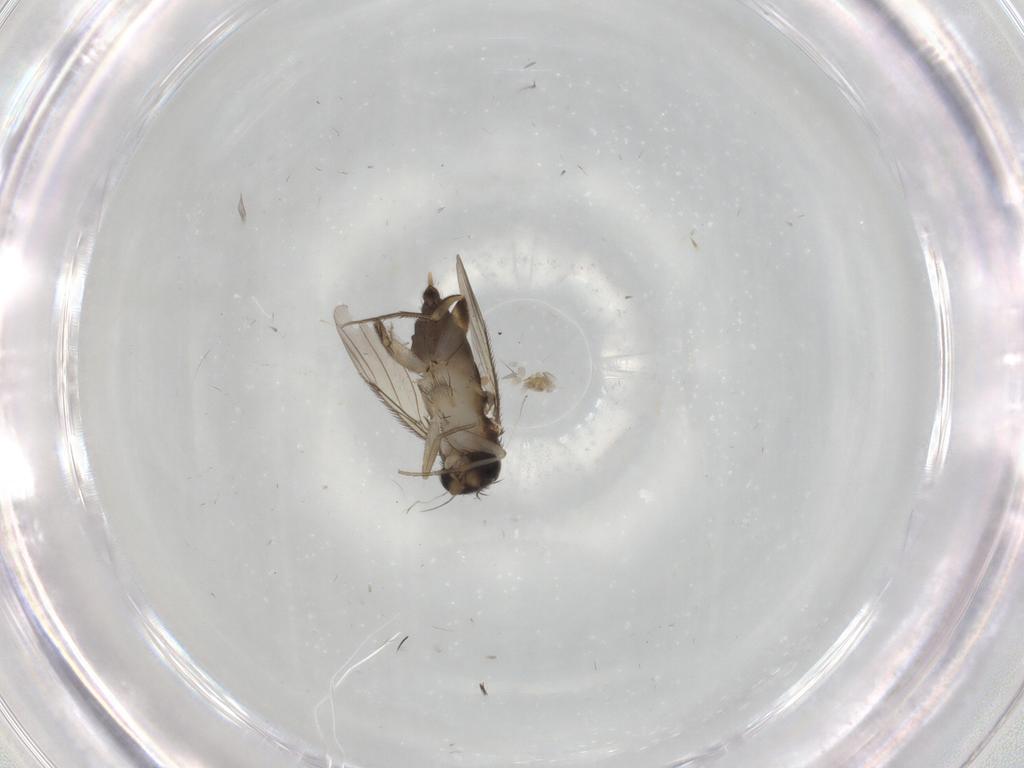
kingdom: Animalia
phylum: Arthropoda
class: Insecta
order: Diptera
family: Phoridae
